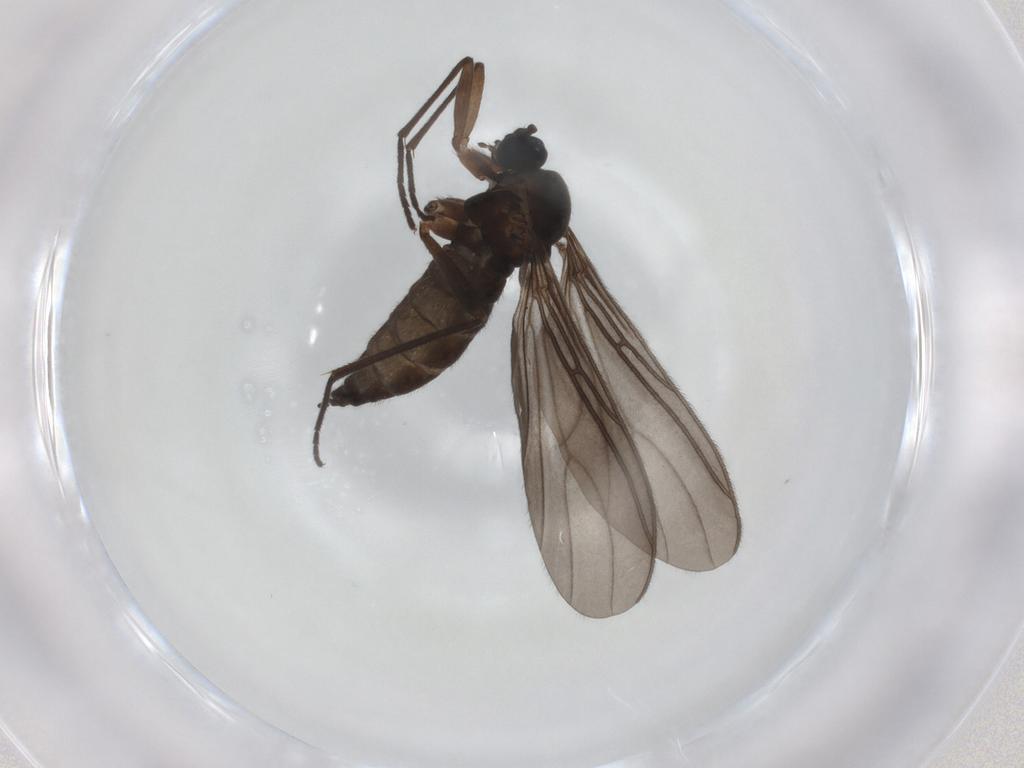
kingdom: Animalia
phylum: Arthropoda
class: Insecta
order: Diptera
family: Sciaridae
